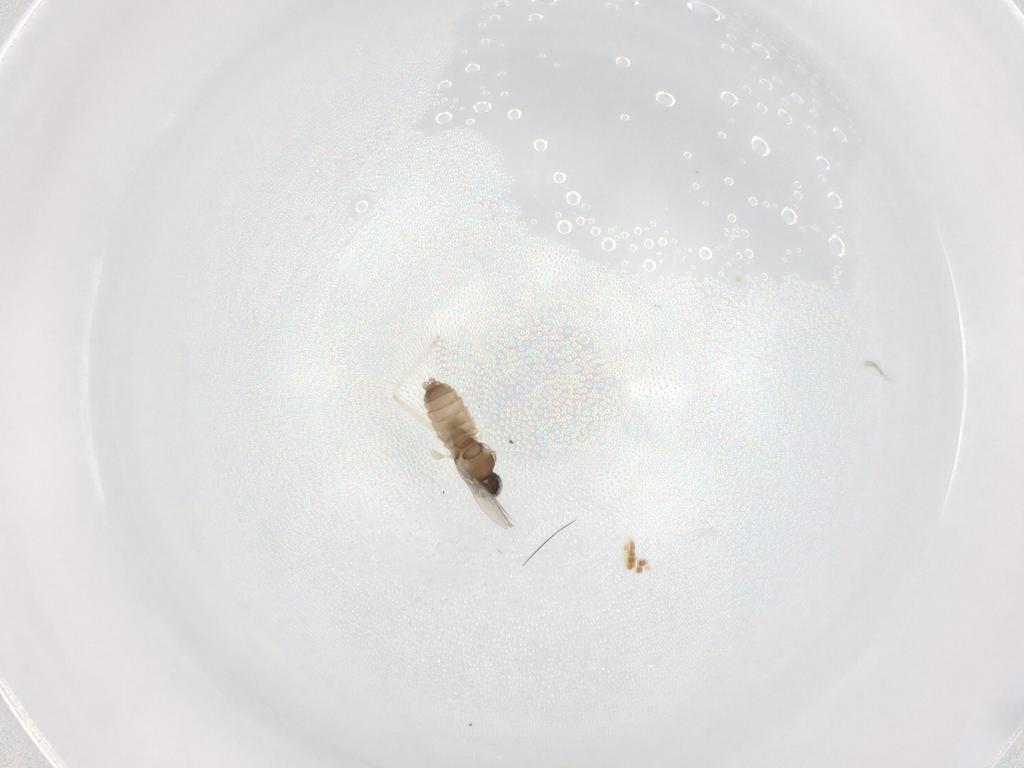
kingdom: Animalia
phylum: Arthropoda
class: Insecta
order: Diptera
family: Cecidomyiidae
